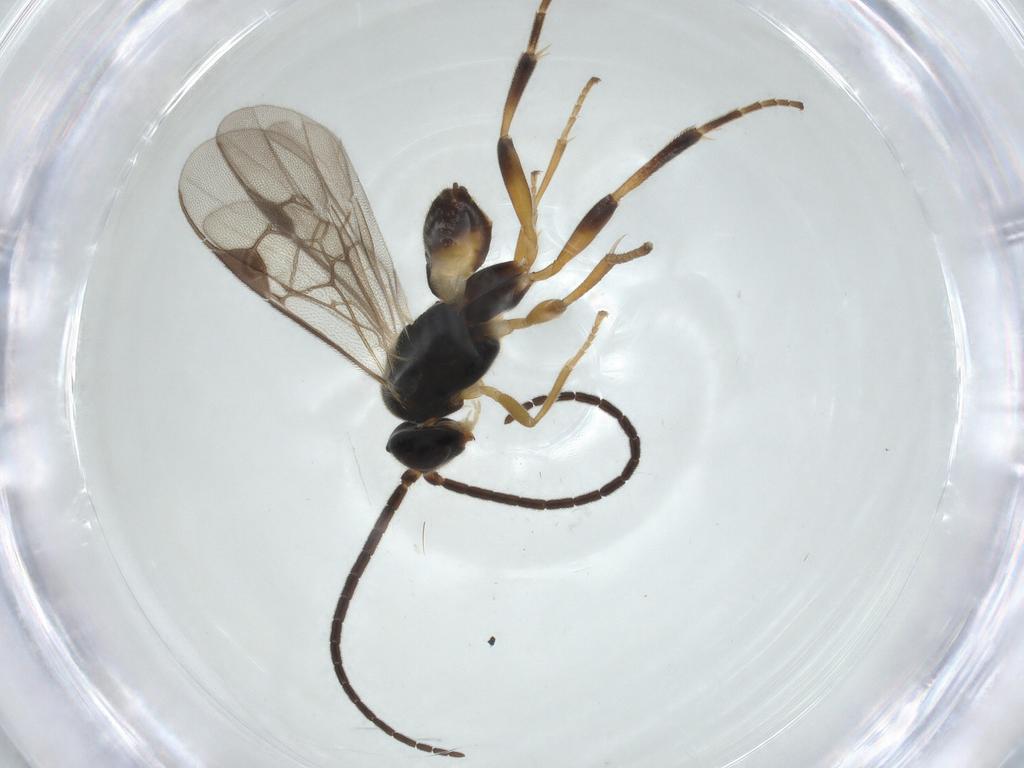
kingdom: Animalia
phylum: Arthropoda
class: Insecta
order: Hymenoptera
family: Braconidae
